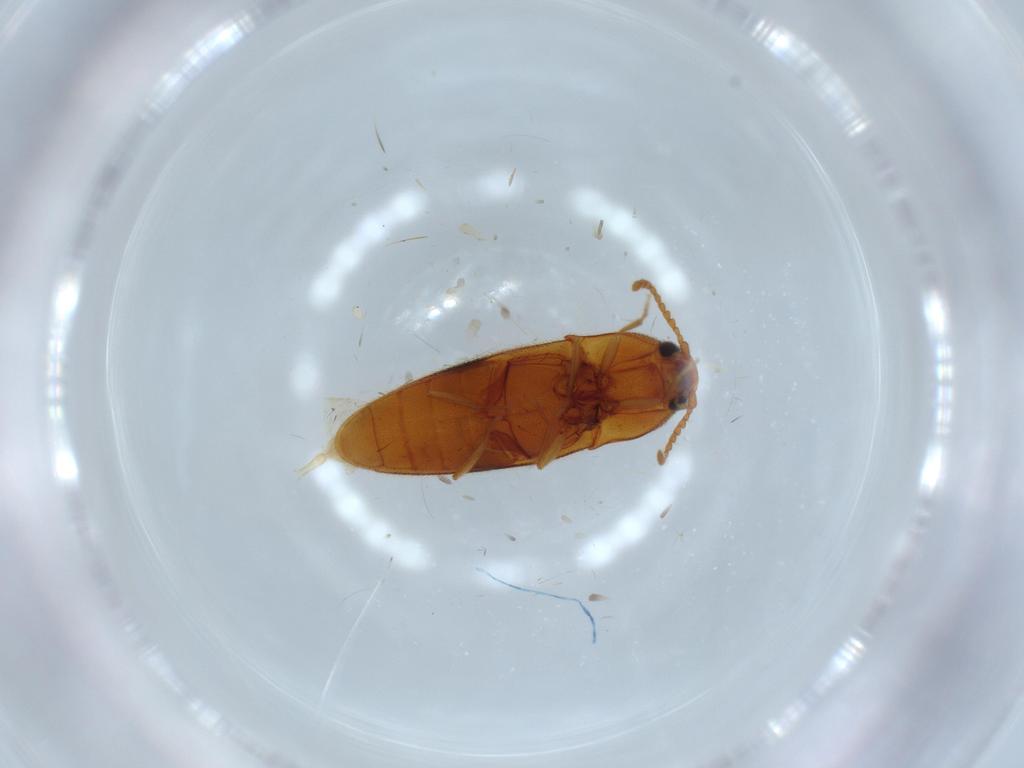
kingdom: Animalia
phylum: Arthropoda
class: Insecta
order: Coleoptera
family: Elateridae
